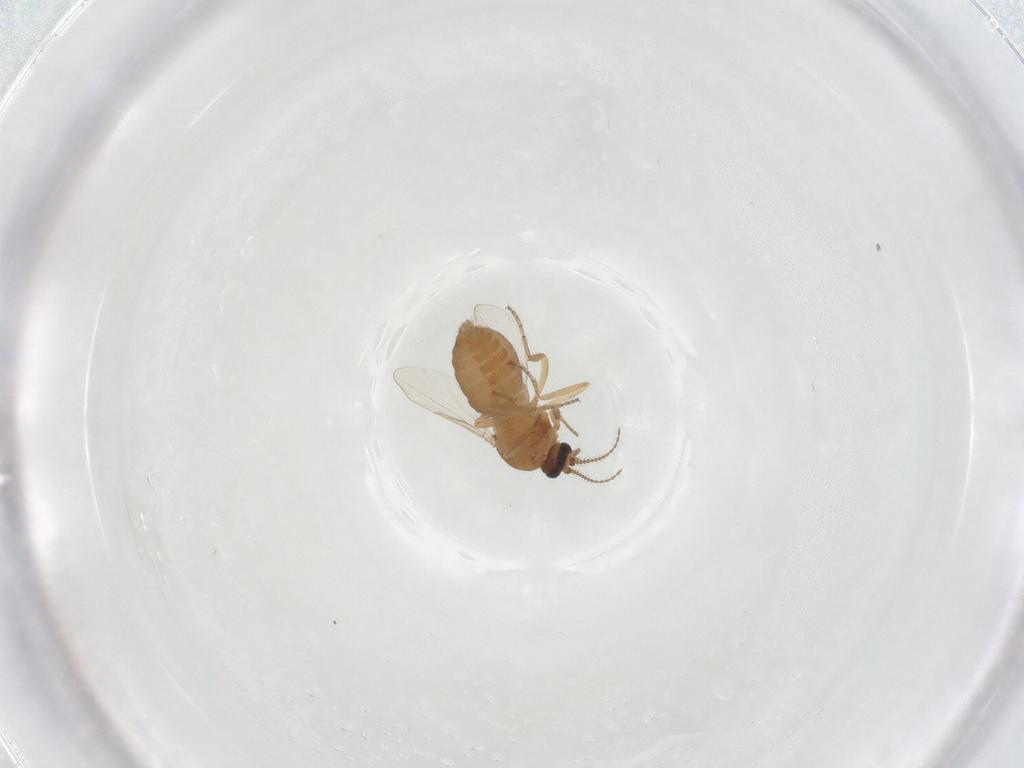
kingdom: Animalia
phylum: Arthropoda
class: Insecta
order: Diptera
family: Ceratopogonidae
